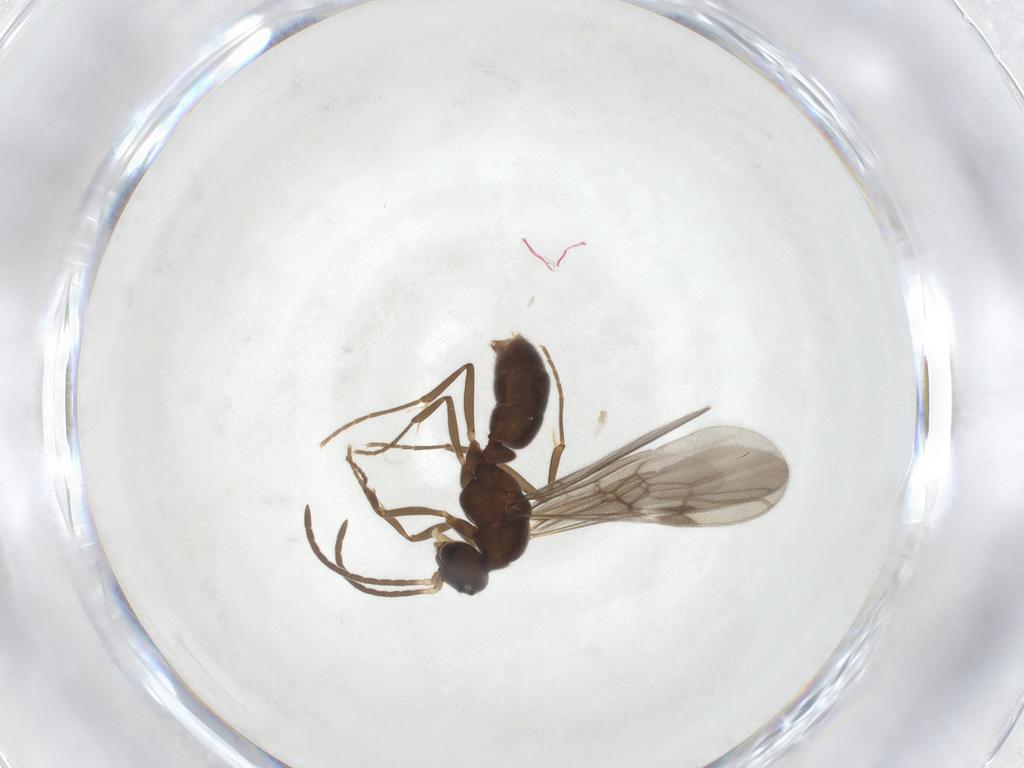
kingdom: Animalia
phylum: Arthropoda
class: Insecta
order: Hymenoptera
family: Formicidae
